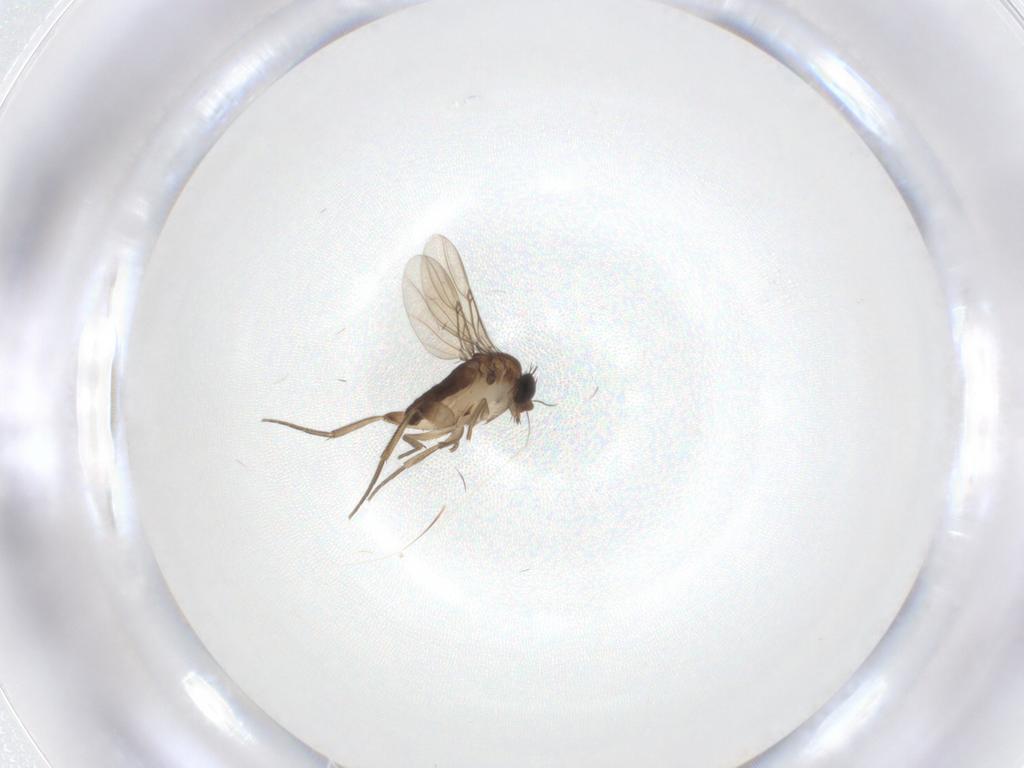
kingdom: Animalia
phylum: Arthropoda
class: Insecta
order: Diptera
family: Phoridae
